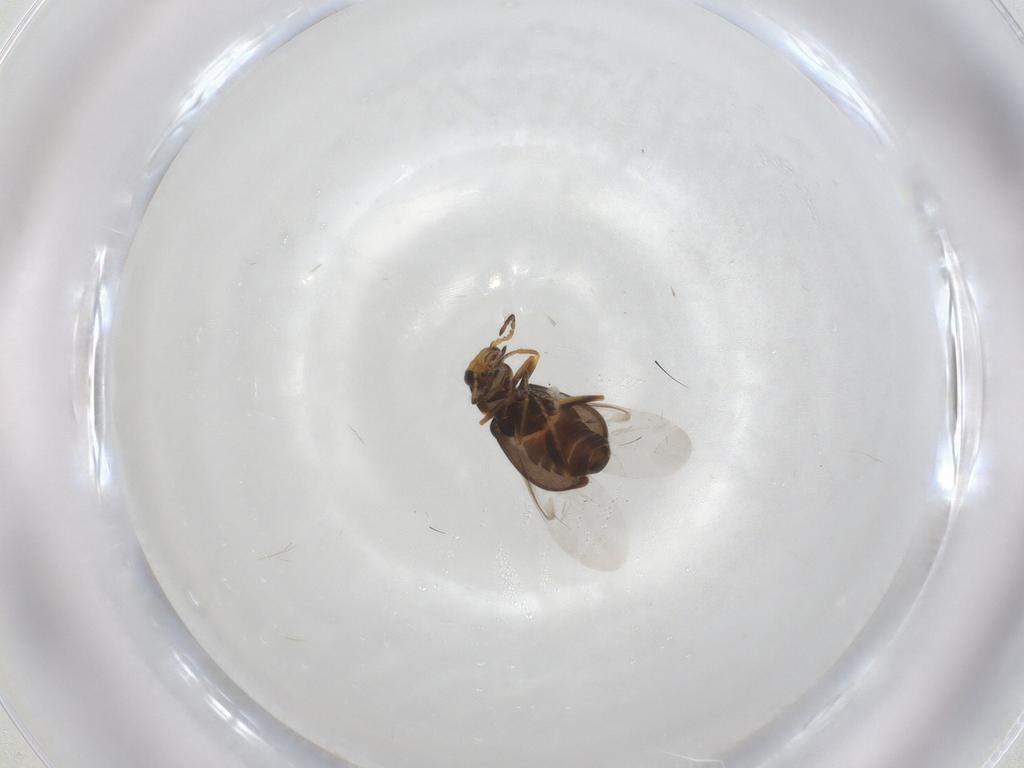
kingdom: Animalia
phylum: Arthropoda
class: Insecta
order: Coleoptera
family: Melyridae
